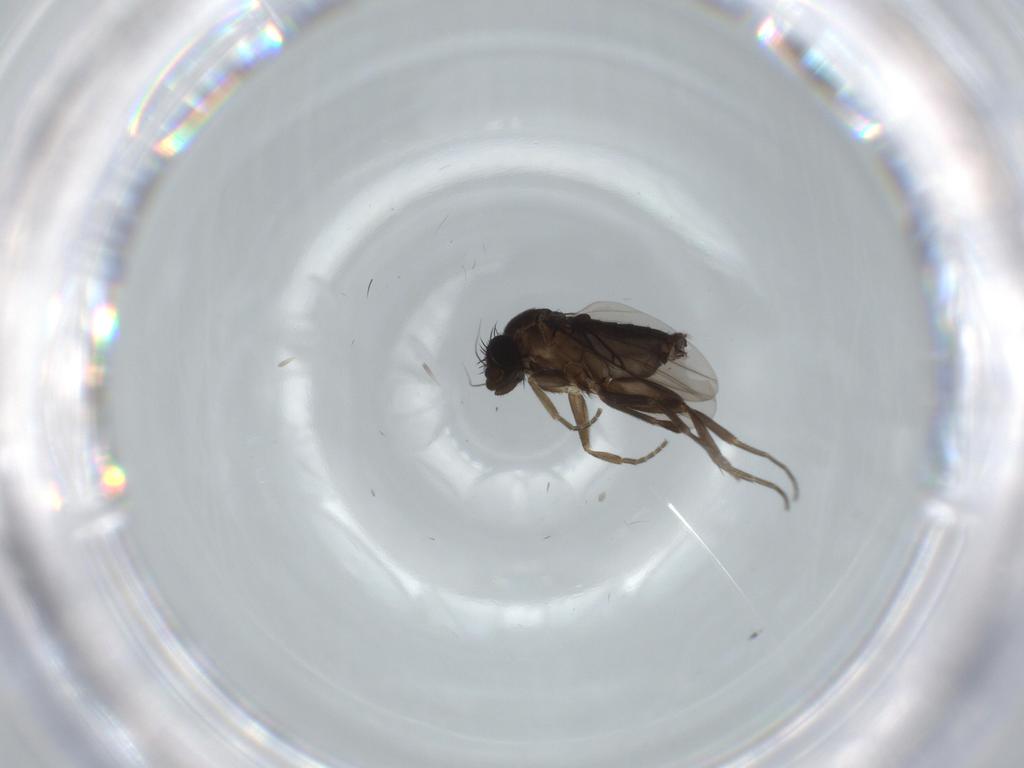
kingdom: Animalia
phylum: Arthropoda
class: Insecta
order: Diptera
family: Phoridae
